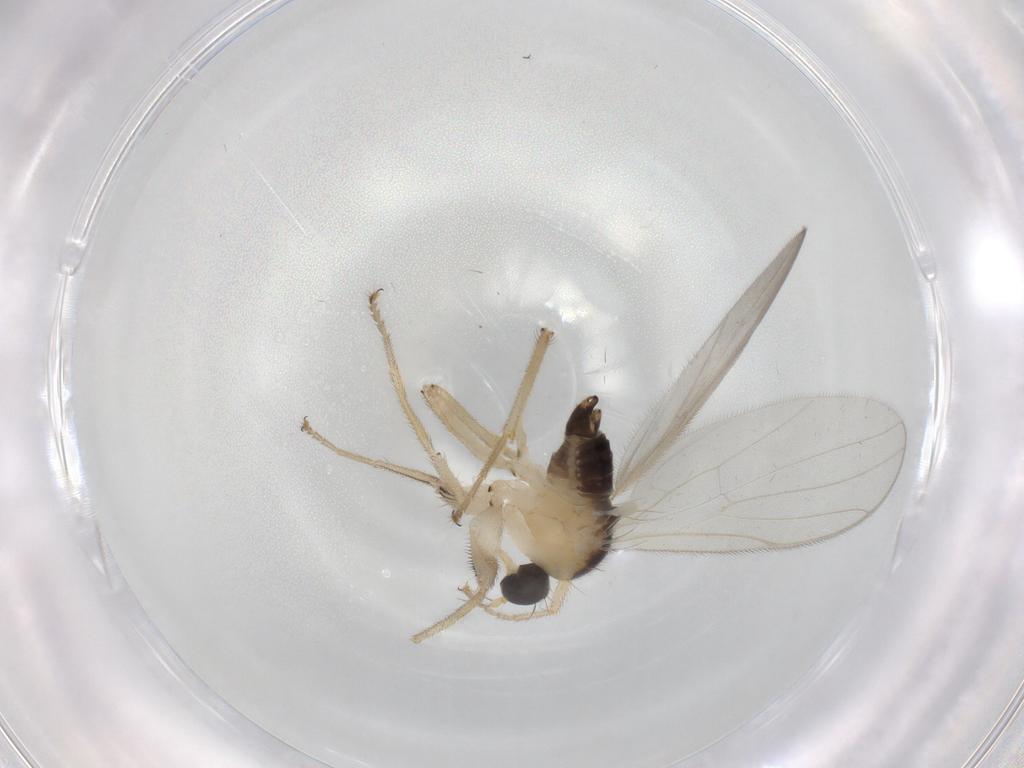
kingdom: Animalia
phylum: Arthropoda
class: Insecta
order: Diptera
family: Hybotidae
